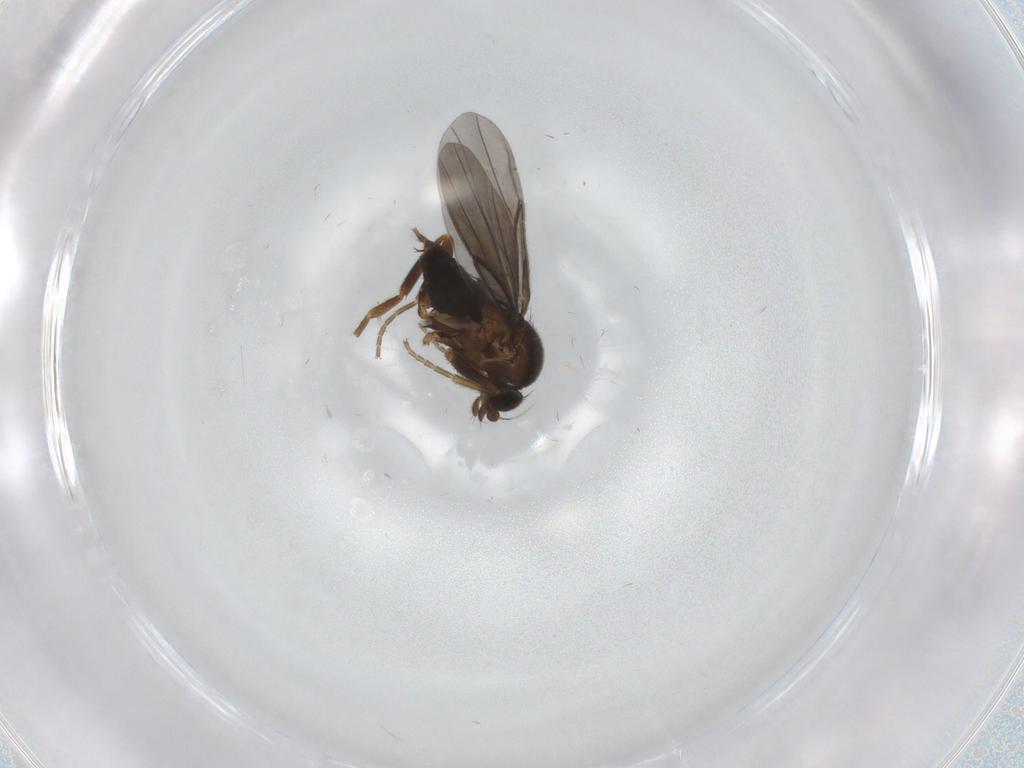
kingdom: Animalia
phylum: Arthropoda
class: Insecta
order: Diptera
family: Phoridae
